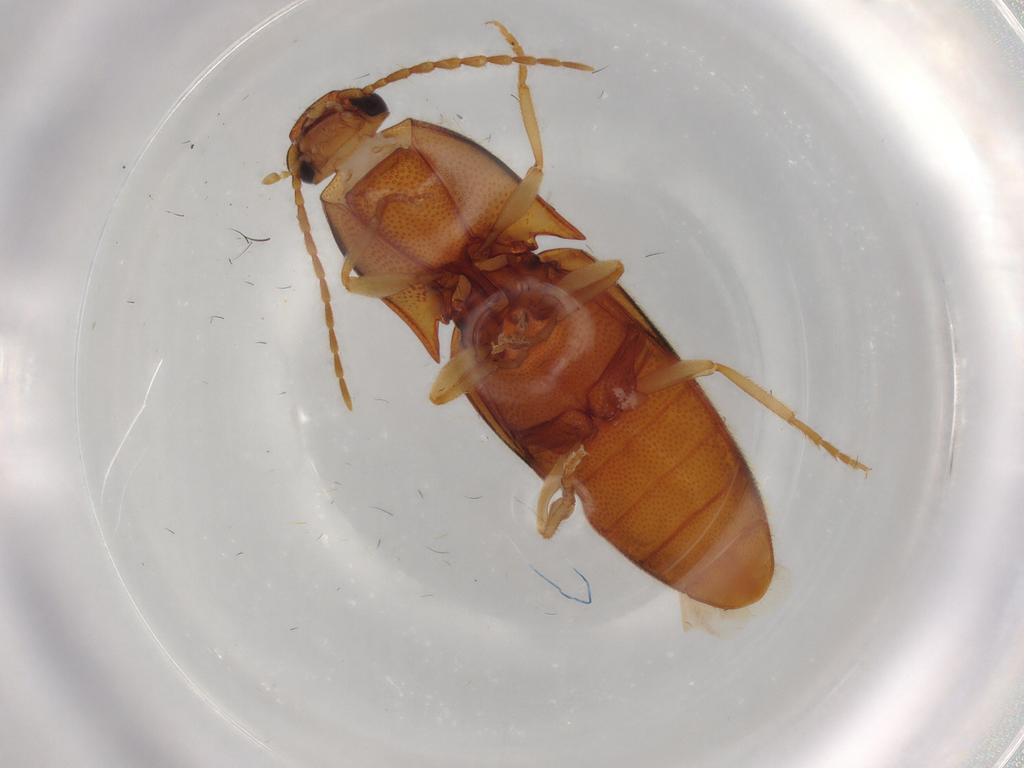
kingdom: Animalia
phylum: Arthropoda
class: Insecta
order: Coleoptera
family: Elateridae
